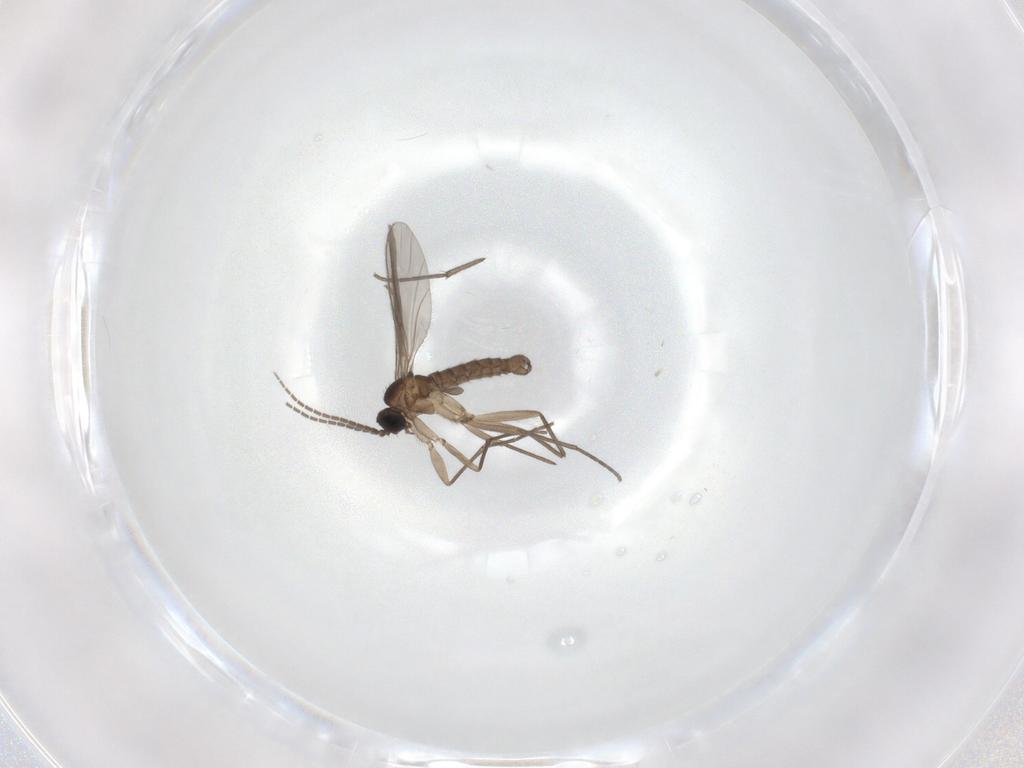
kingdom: Animalia
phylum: Arthropoda
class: Insecta
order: Diptera
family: Sciaridae
